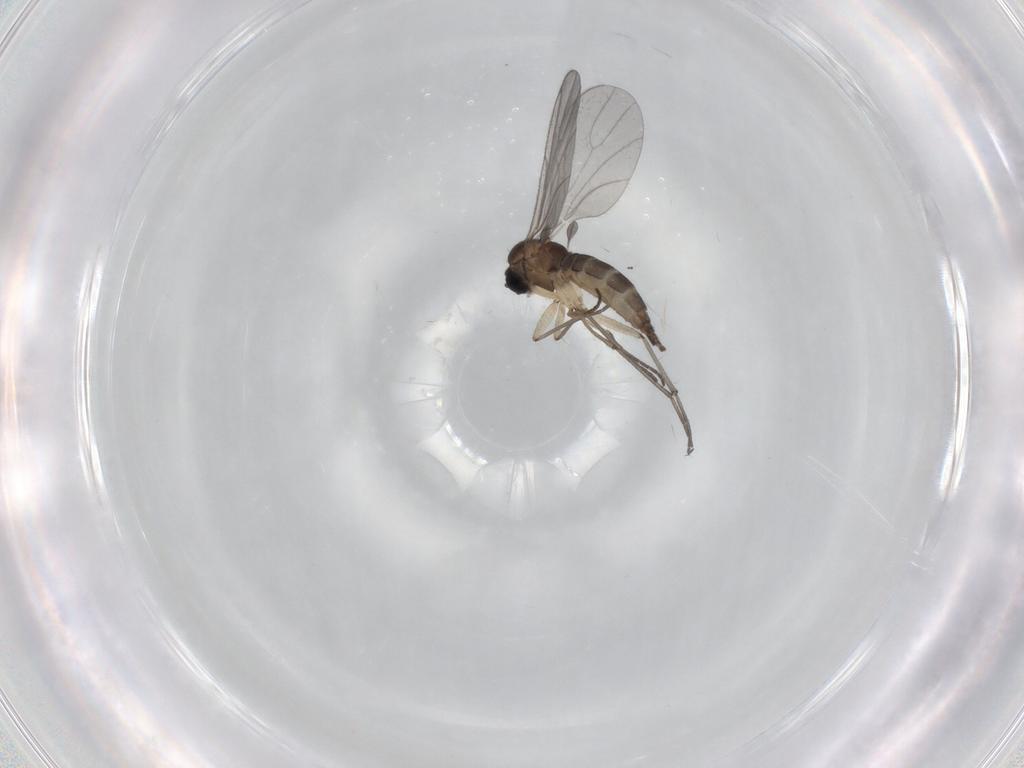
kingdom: Animalia
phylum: Arthropoda
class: Insecta
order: Diptera
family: Sciaridae
